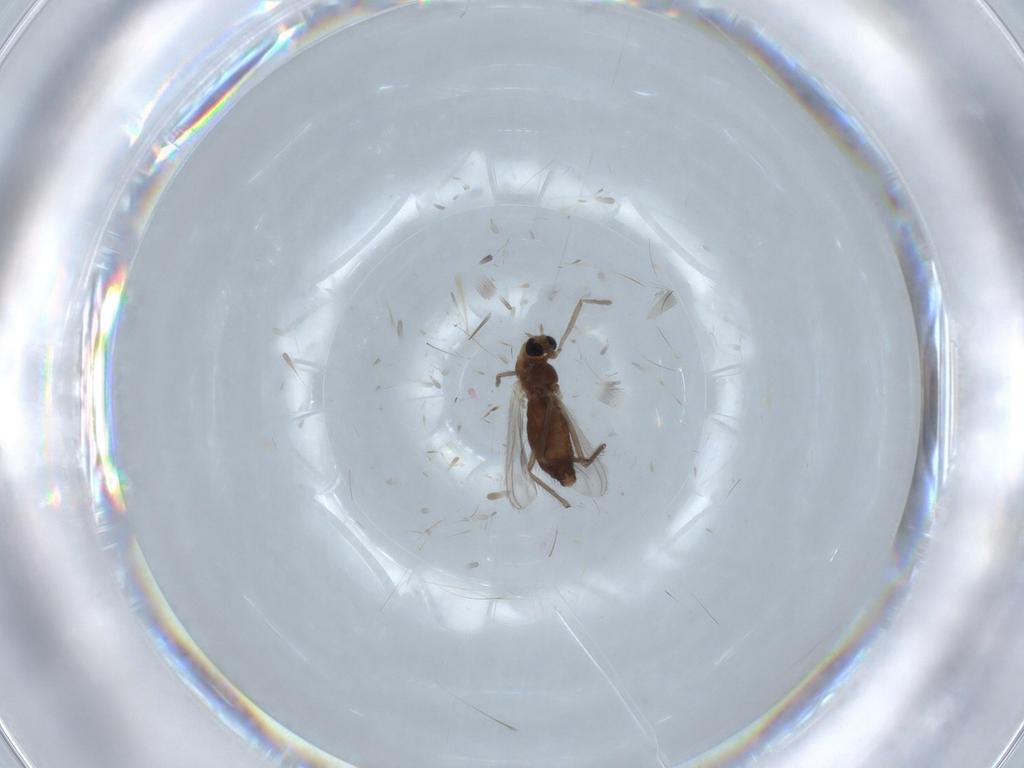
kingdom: Animalia
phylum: Arthropoda
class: Insecta
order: Diptera
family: Chironomidae
